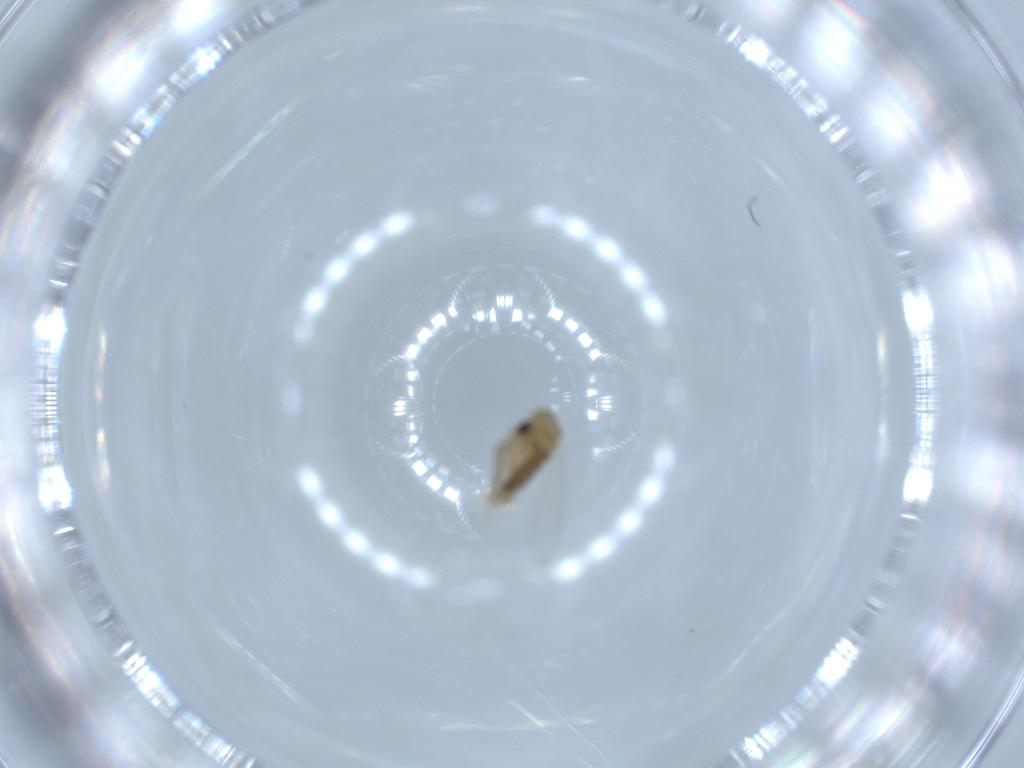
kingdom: Animalia
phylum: Arthropoda
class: Insecta
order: Diptera
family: Psychodidae
